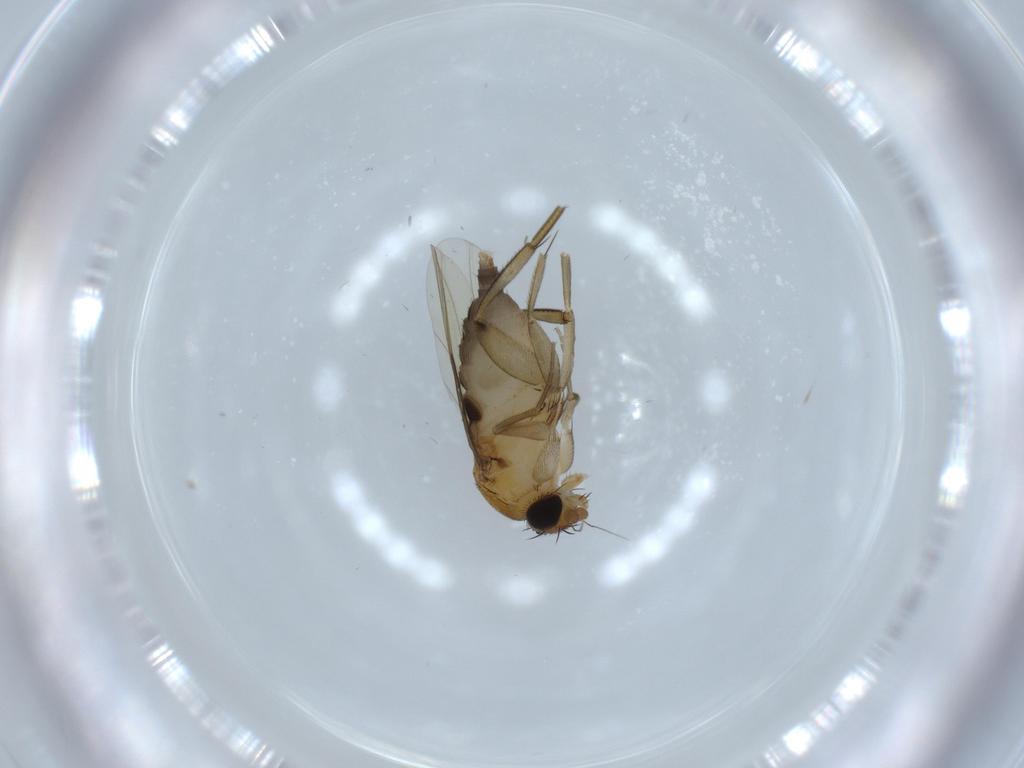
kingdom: Animalia
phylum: Arthropoda
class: Insecta
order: Diptera
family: Phoridae
